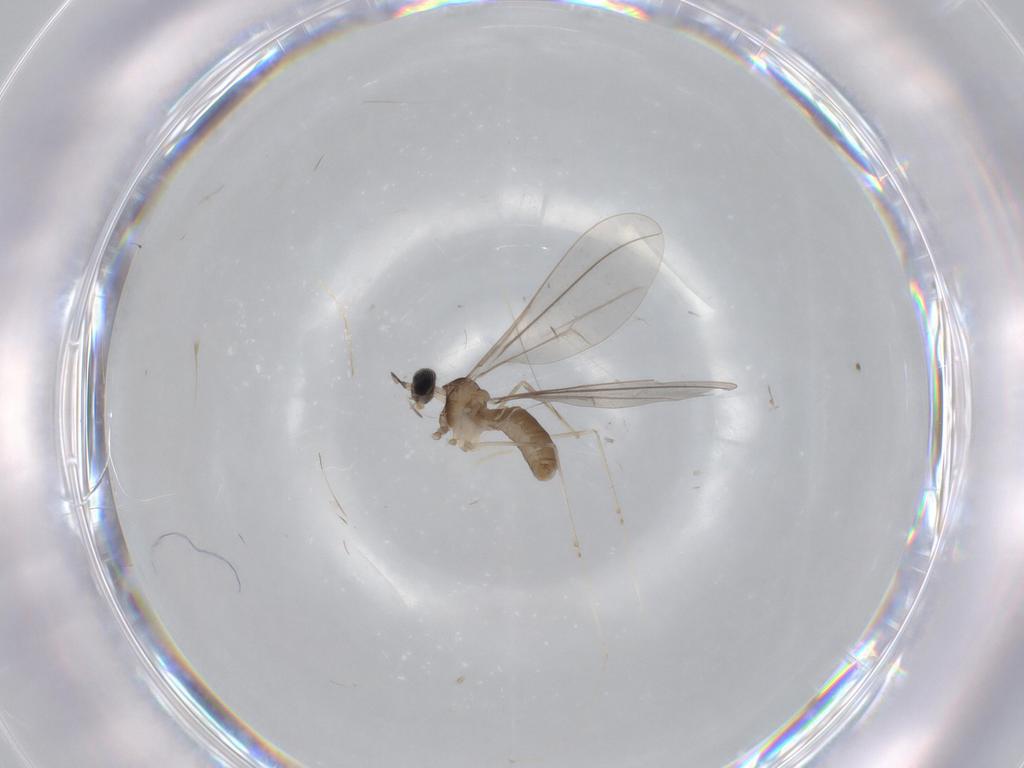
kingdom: Animalia
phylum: Arthropoda
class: Insecta
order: Diptera
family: Cecidomyiidae
